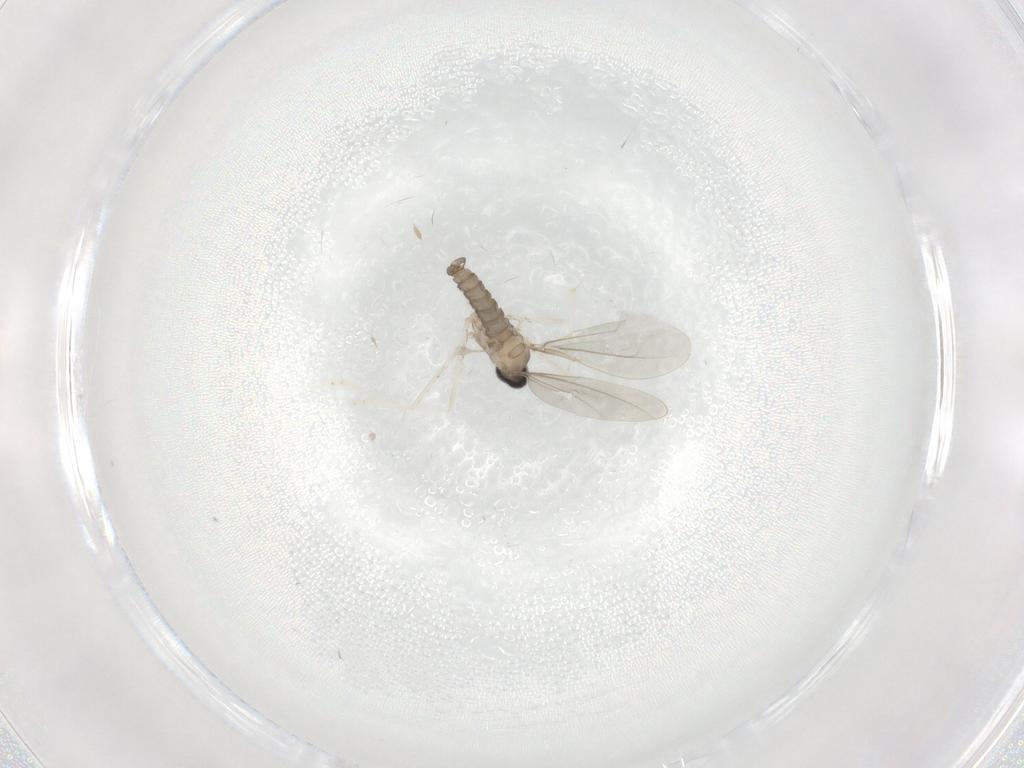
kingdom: Animalia
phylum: Arthropoda
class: Insecta
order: Diptera
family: Cecidomyiidae
